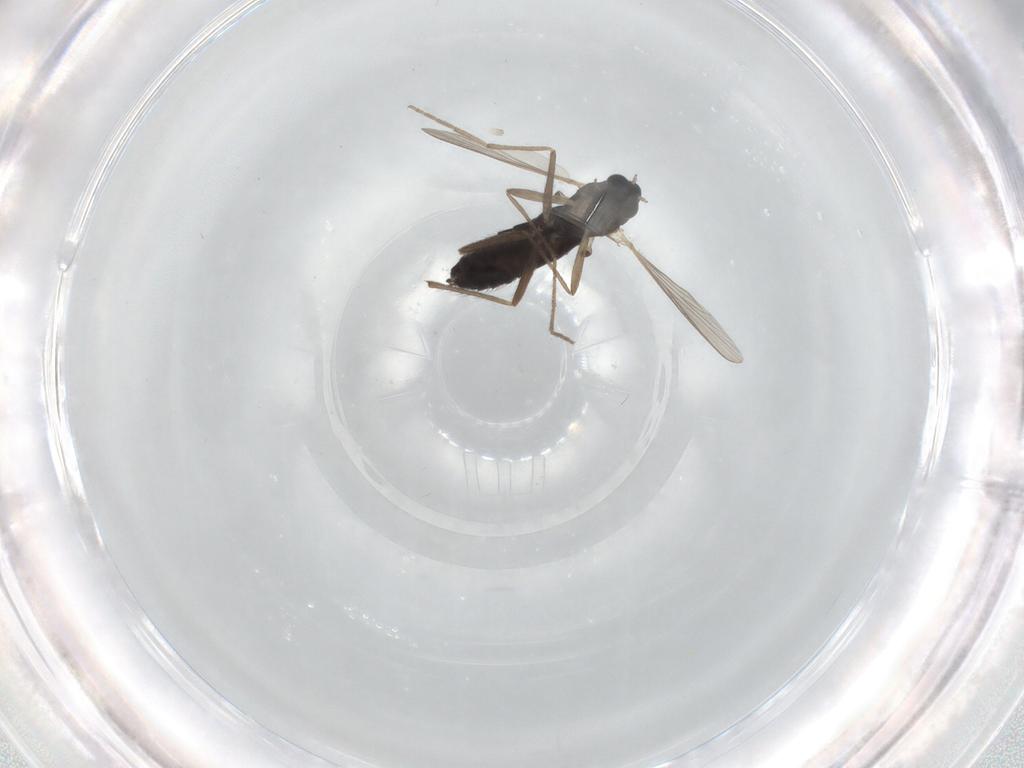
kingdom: Animalia
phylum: Arthropoda
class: Insecta
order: Diptera
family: Chironomidae
